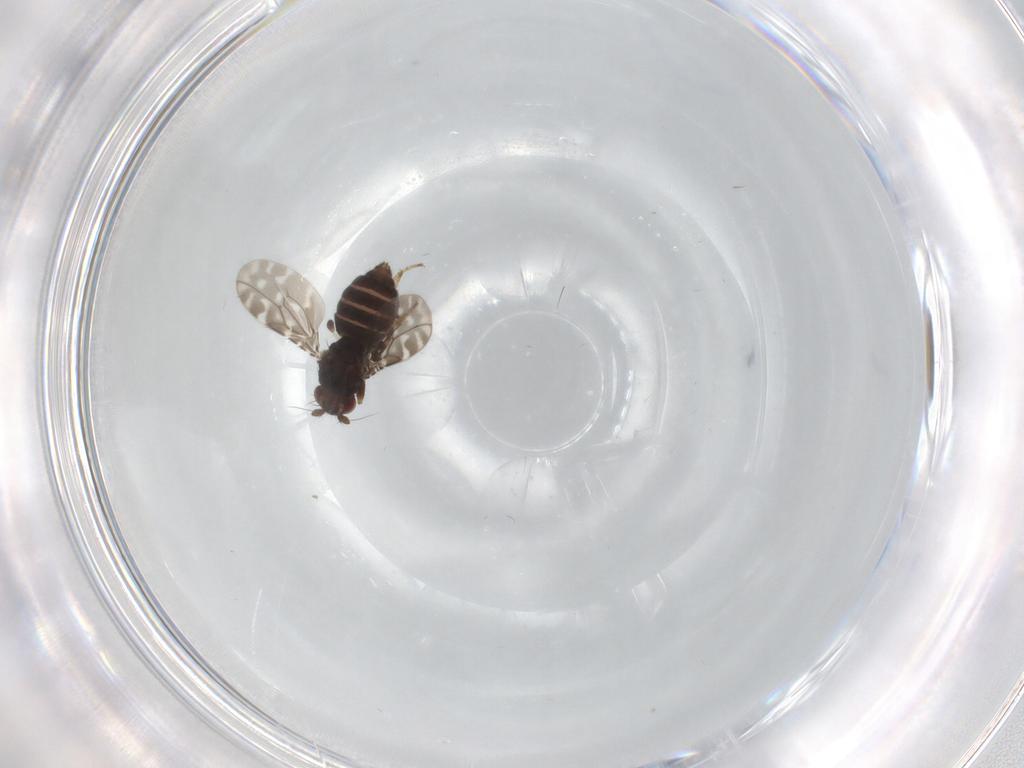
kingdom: Animalia
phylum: Arthropoda
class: Insecta
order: Diptera
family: Sphaeroceridae
